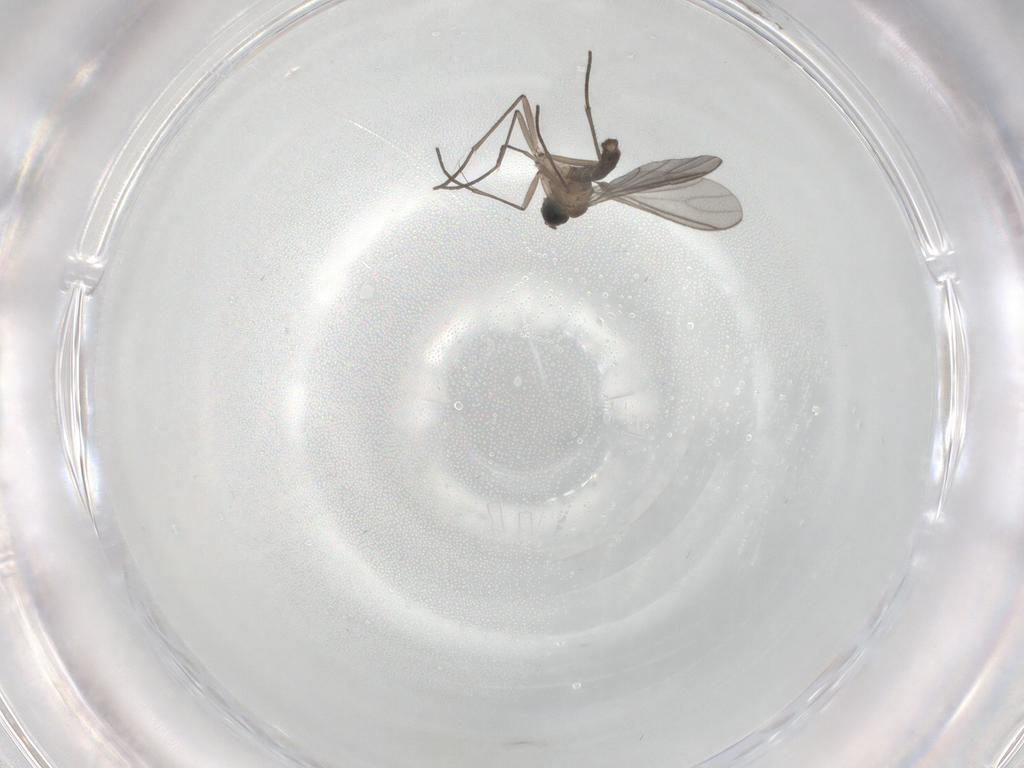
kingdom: Animalia
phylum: Arthropoda
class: Insecta
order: Diptera
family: Sciaridae
